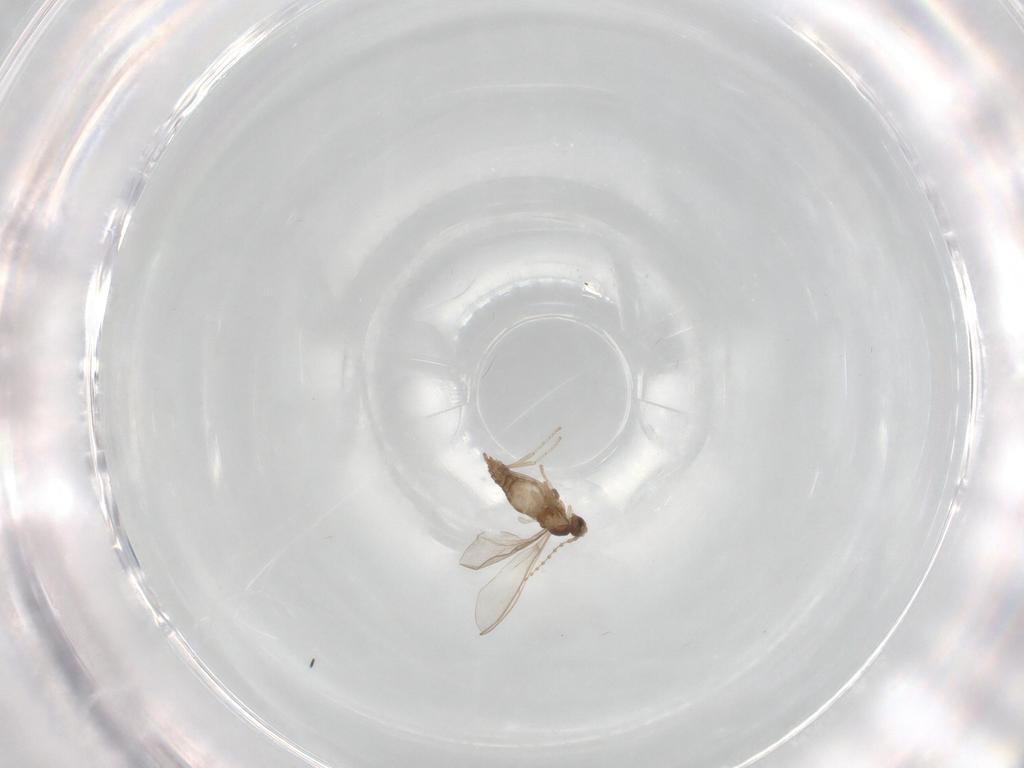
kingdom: Animalia
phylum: Arthropoda
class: Insecta
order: Diptera
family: Cecidomyiidae
